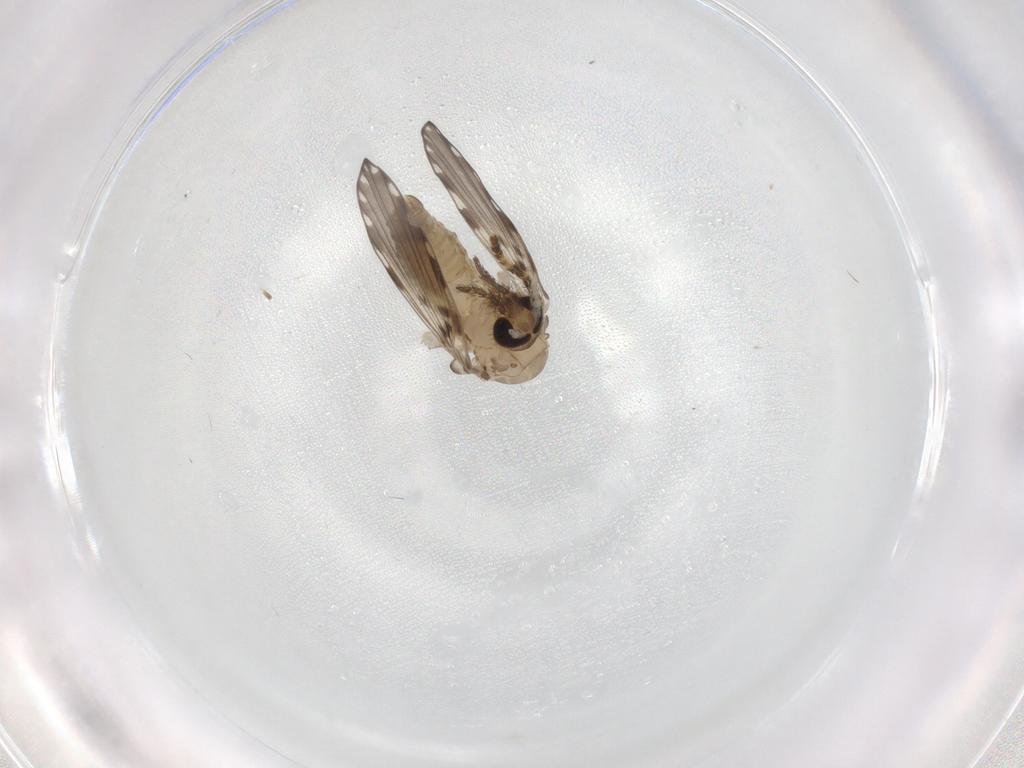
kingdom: Animalia
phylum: Arthropoda
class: Insecta
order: Diptera
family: Psychodidae
